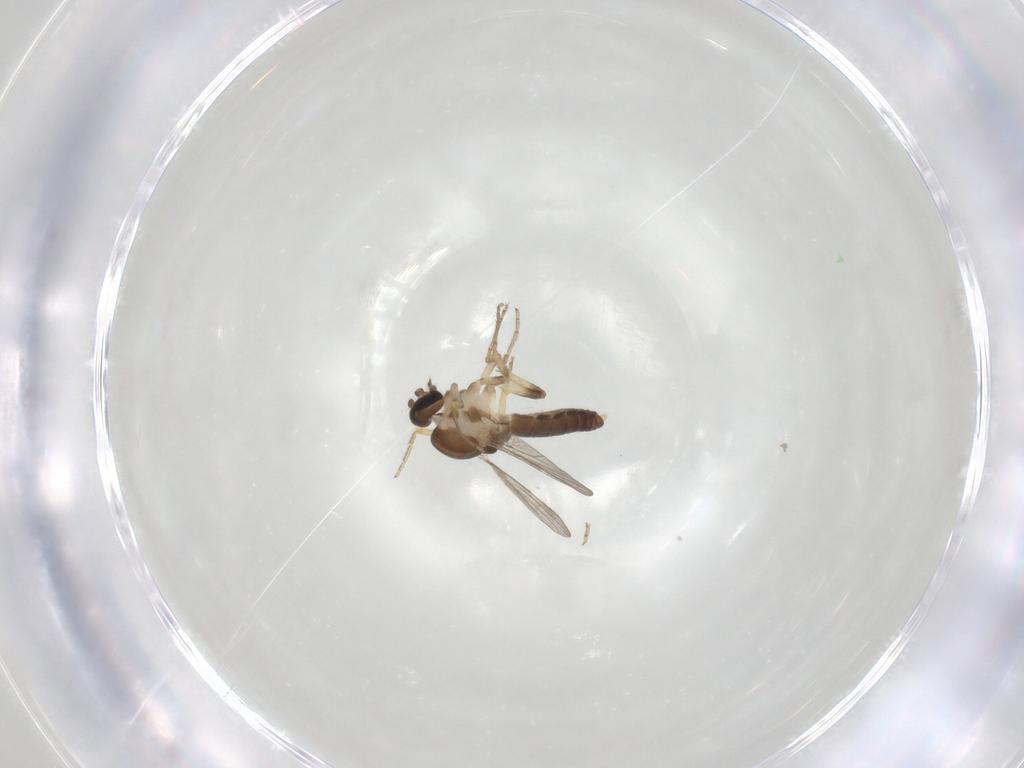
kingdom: Animalia
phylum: Arthropoda
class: Insecta
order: Diptera
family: Ceratopogonidae
